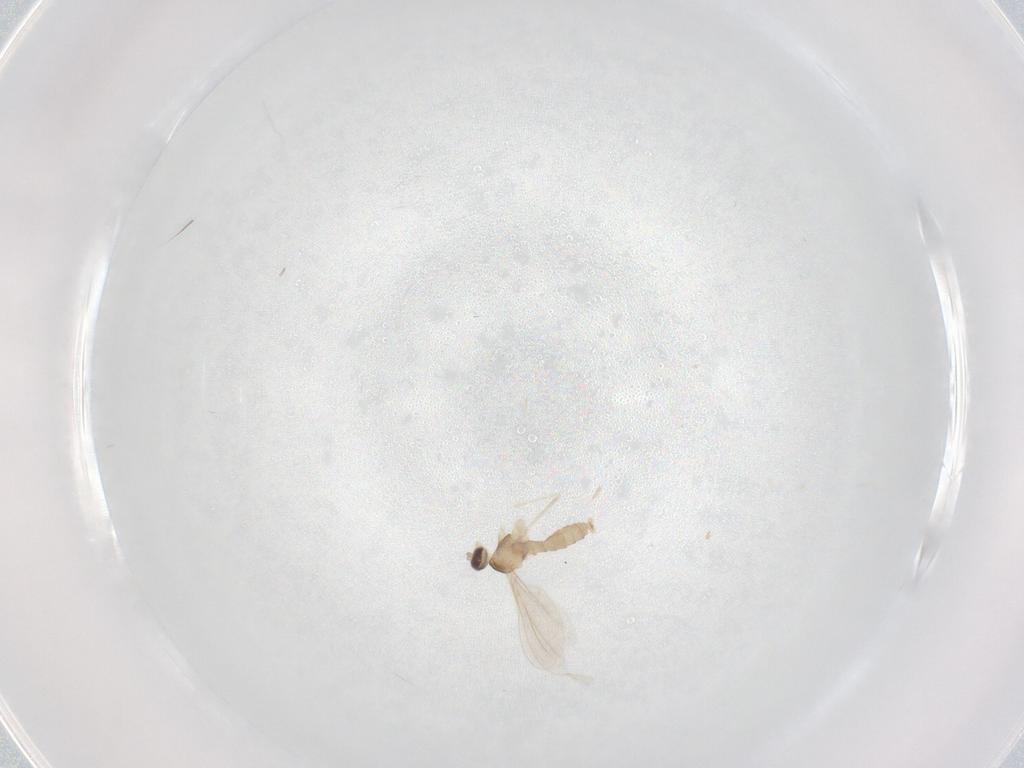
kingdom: Animalia
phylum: Arthropoda
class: Insecta
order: Diptera
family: Cecidomyiidae
